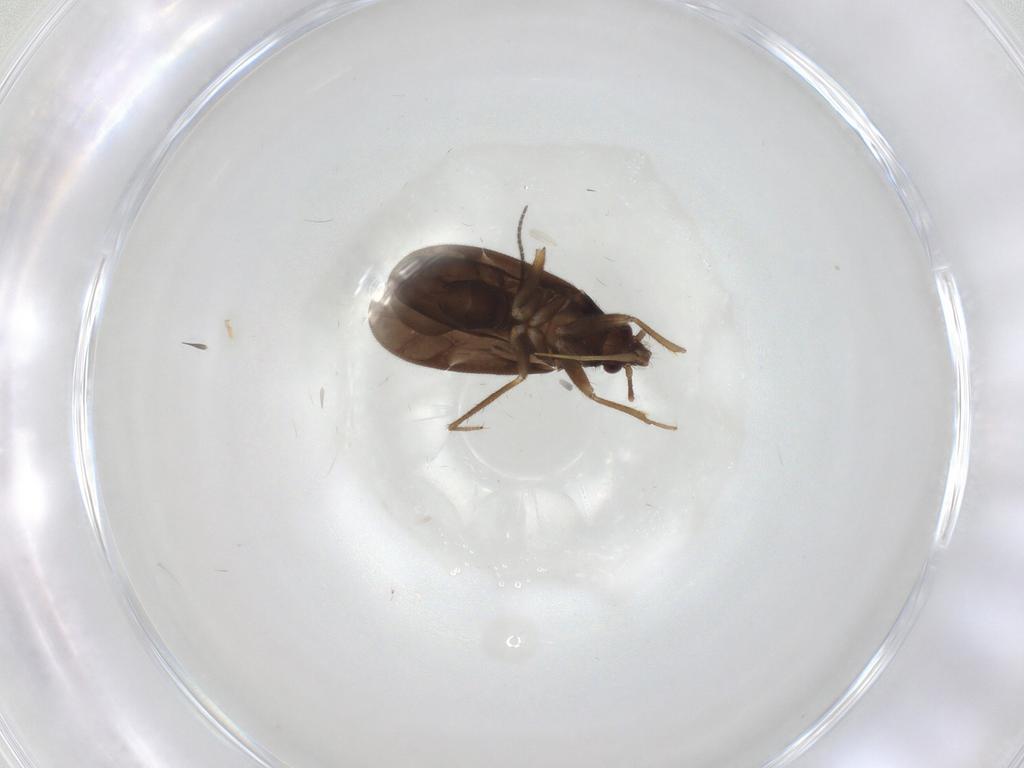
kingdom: Animalia
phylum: Arthropoda
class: Insecta
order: Hemiptera
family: Ceratocombidae
